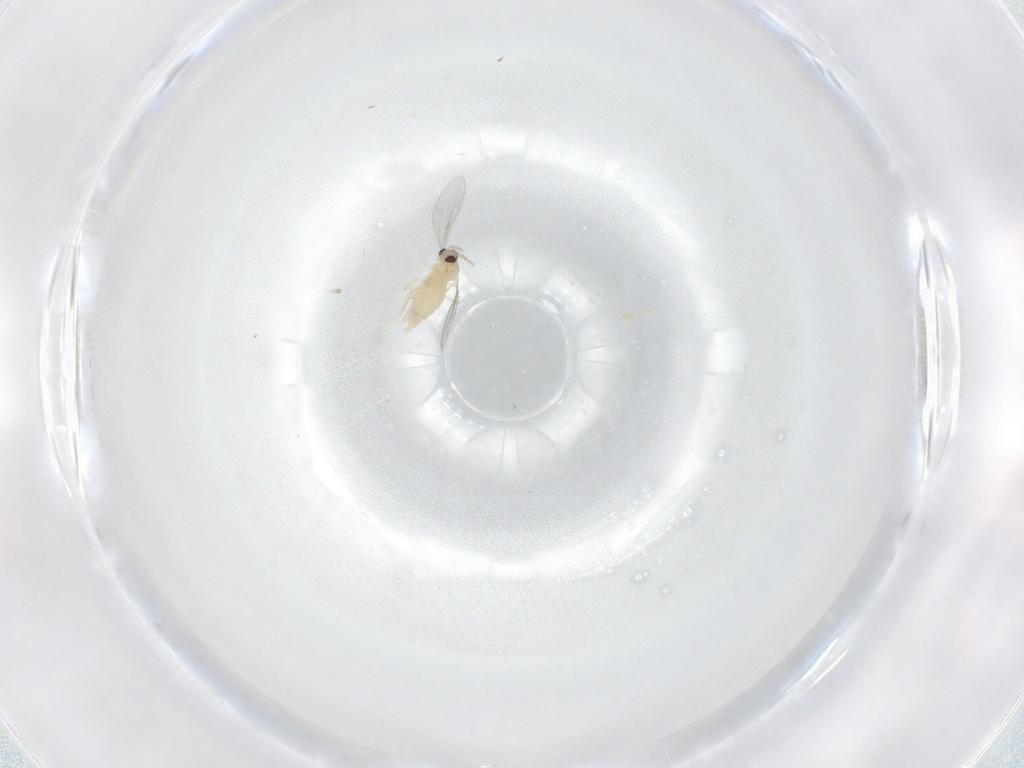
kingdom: Animalia
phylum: Arthropoda
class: Insecta
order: Diptera
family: Cecidomyiidae
